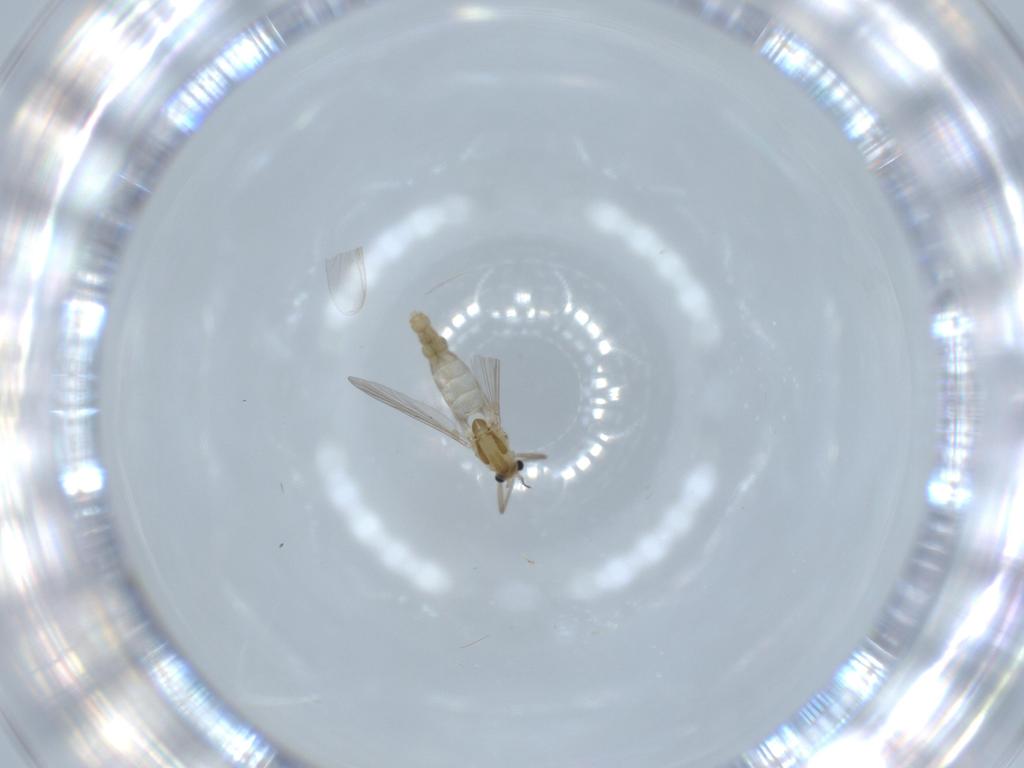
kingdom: Animalia
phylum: Arthropoda
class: Insecta
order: Diptera
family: Chironomidae
